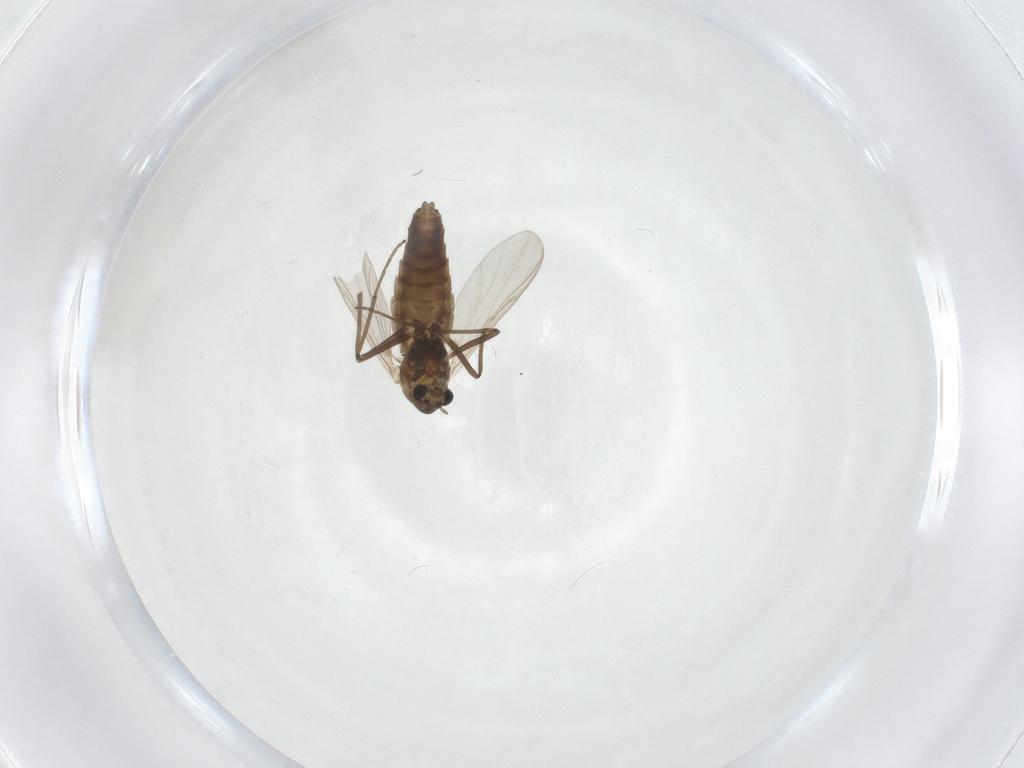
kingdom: Animalia
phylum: Arthropoda
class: Insecta
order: Diptera
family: Chironomidae
